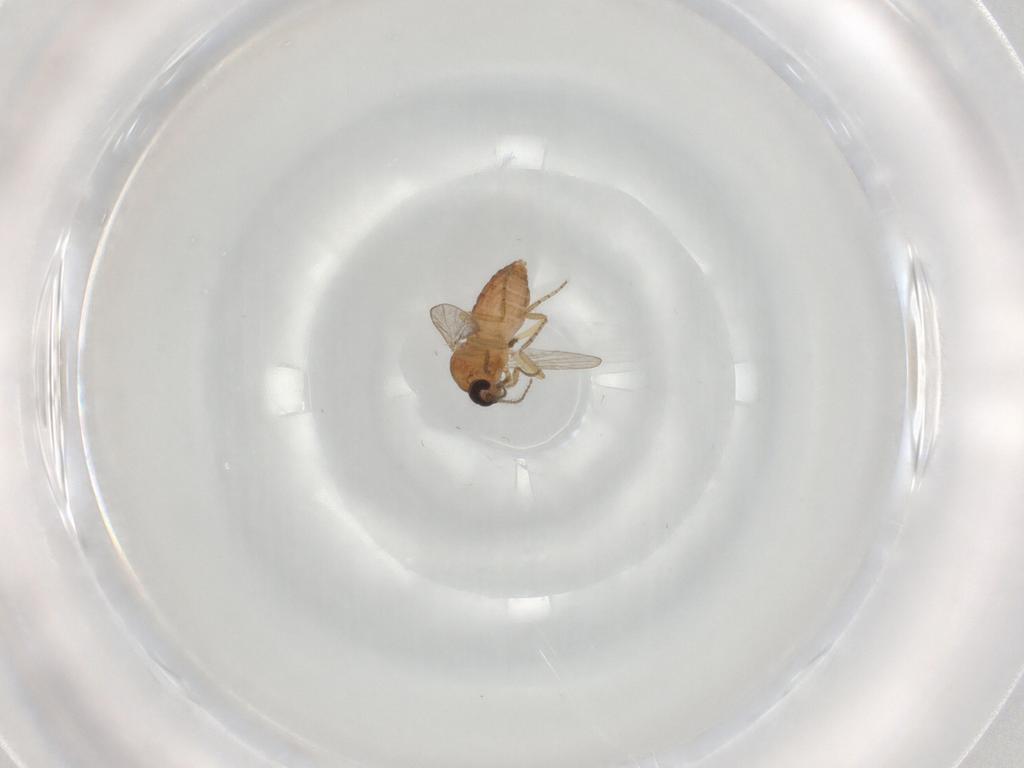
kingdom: Animalia
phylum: Arthropoda
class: Insecta
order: Diptera
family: Ceratopogonidae
